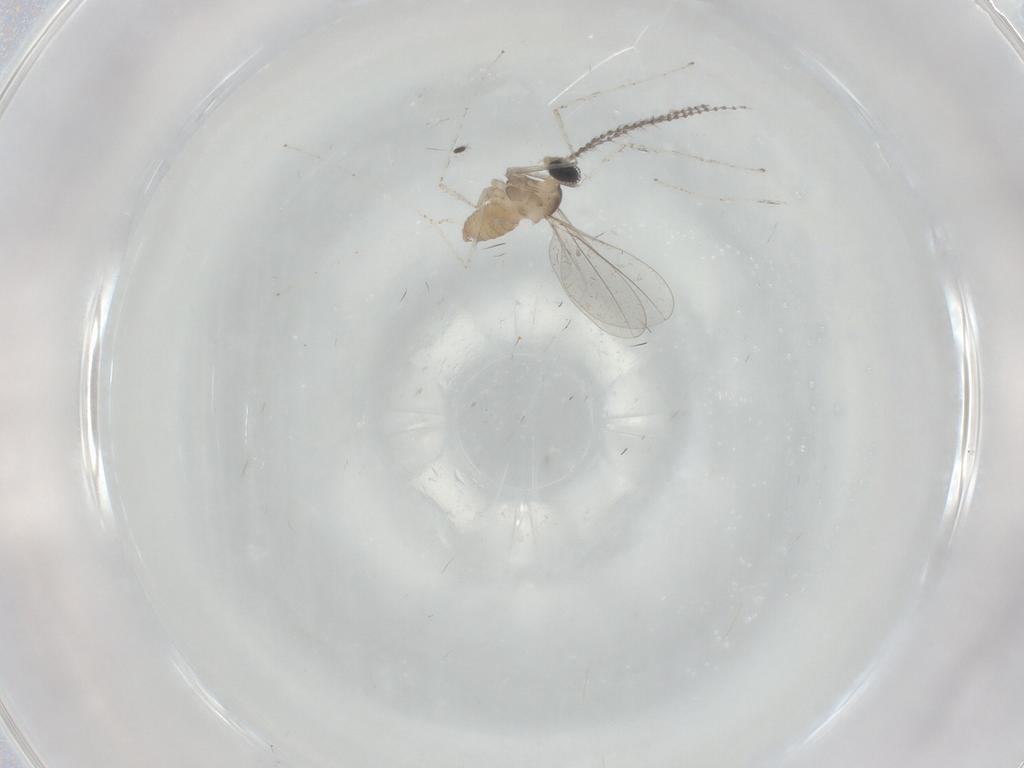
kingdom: Animalia
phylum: Arthropoda
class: Insecta
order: Diptera
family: Cecidomyiidae
